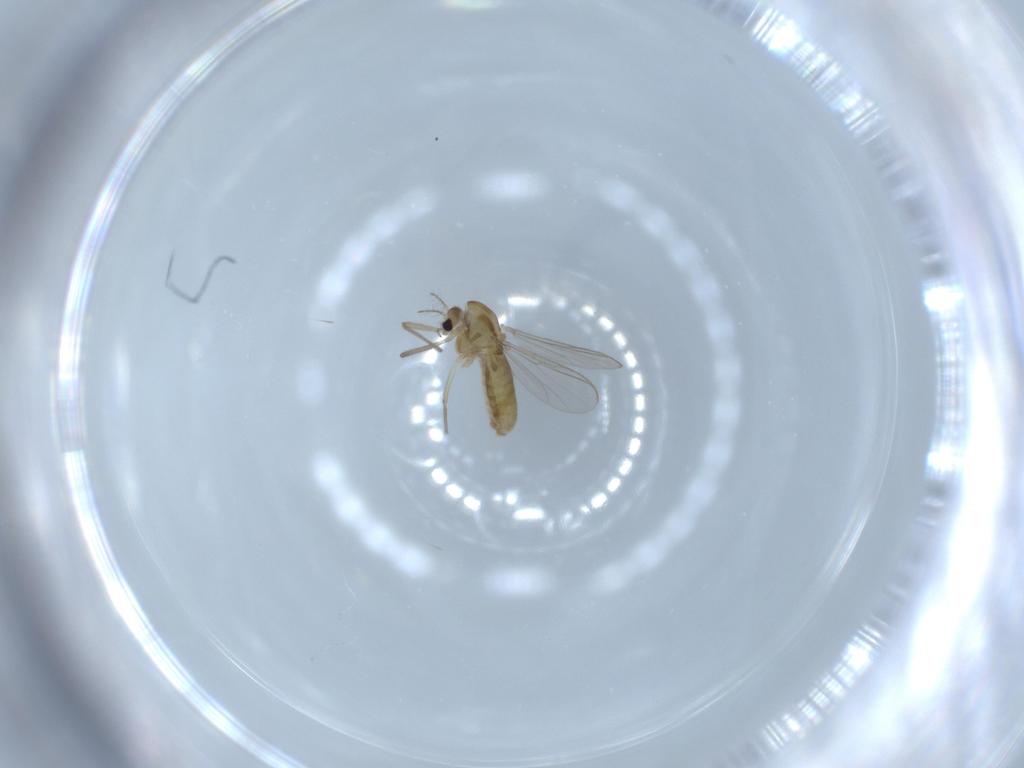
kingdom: Animalia
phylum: Arthropoda
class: Insecta
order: Diptera
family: Chironomidae
